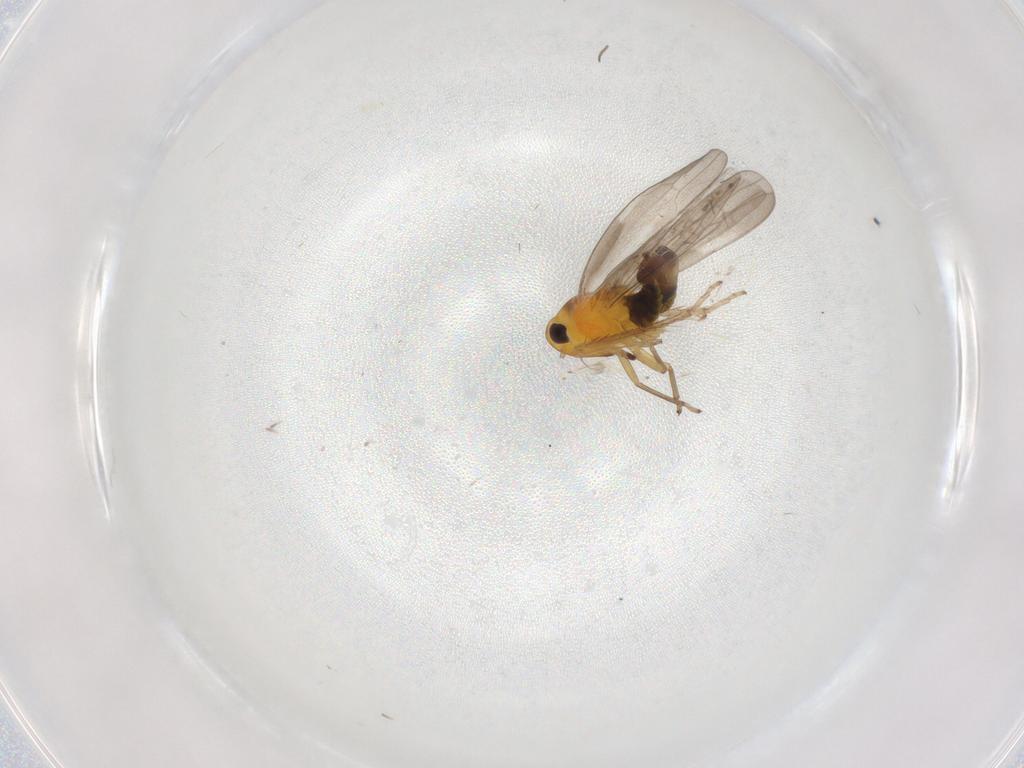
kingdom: Animalia
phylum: Arthropoda
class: Insecta
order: Hemiptera
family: Cicadellidae
